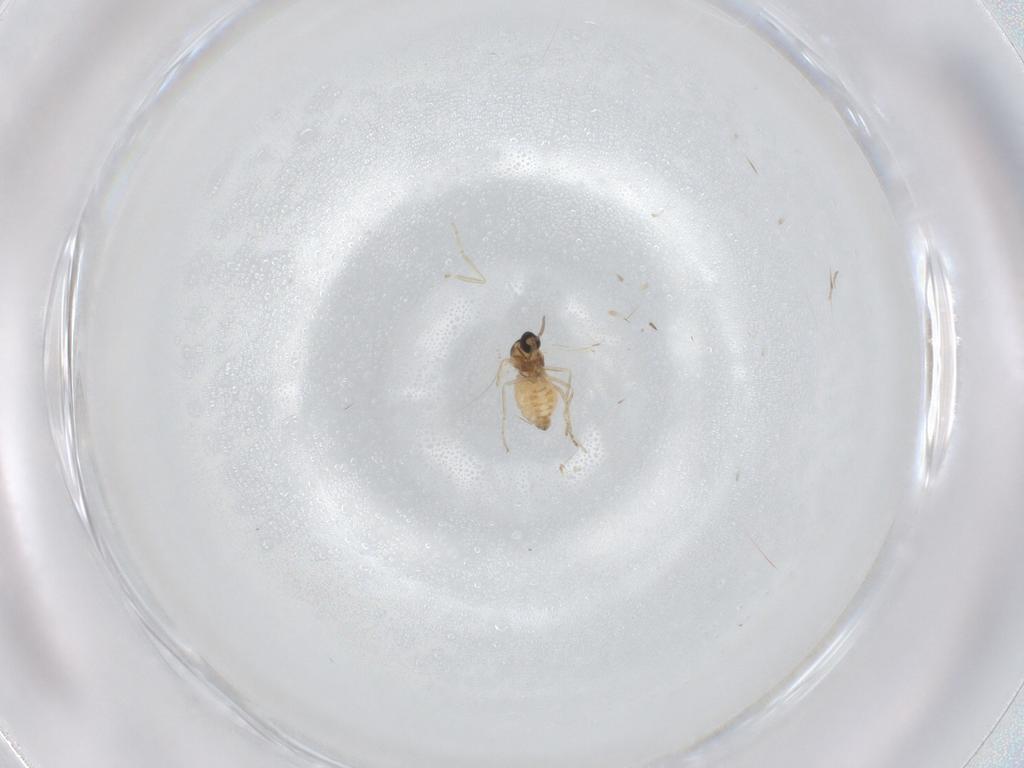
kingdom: Animalia
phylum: Arthropoda
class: Insecta
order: Diptera
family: Cecidomyiidae
